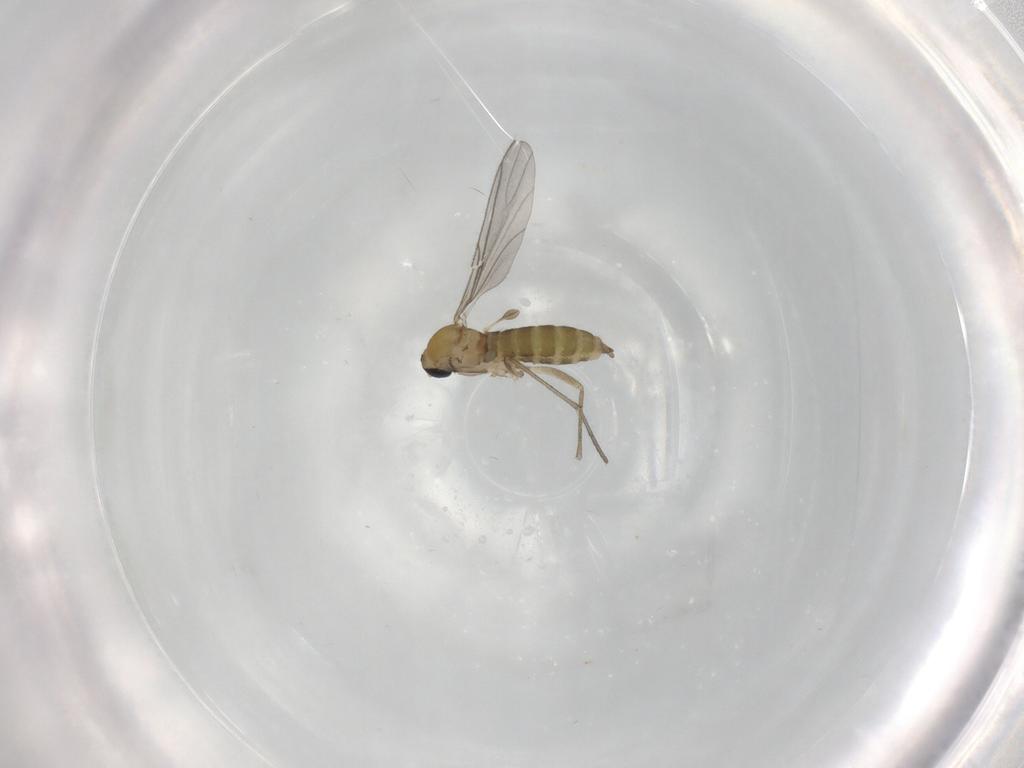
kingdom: Animalia
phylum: Arthropoda
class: Insecta
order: Diptera
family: Sciaridae
